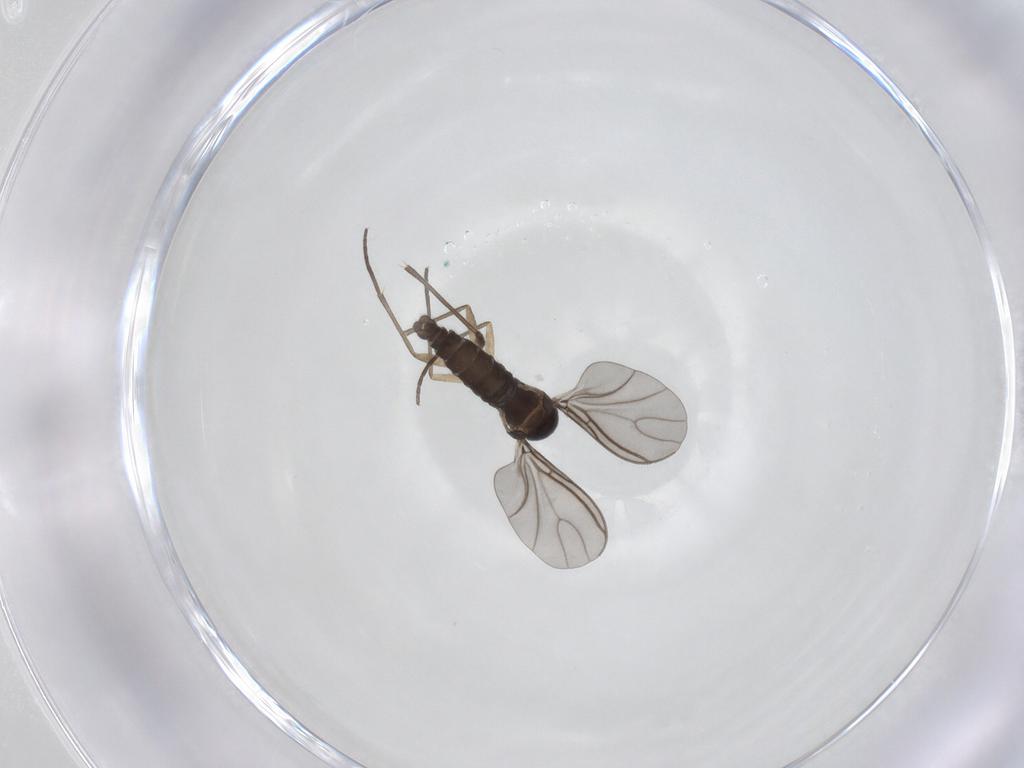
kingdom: Animalia
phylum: Arthropoda
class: Insecta
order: Diptera
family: Sciaridae
